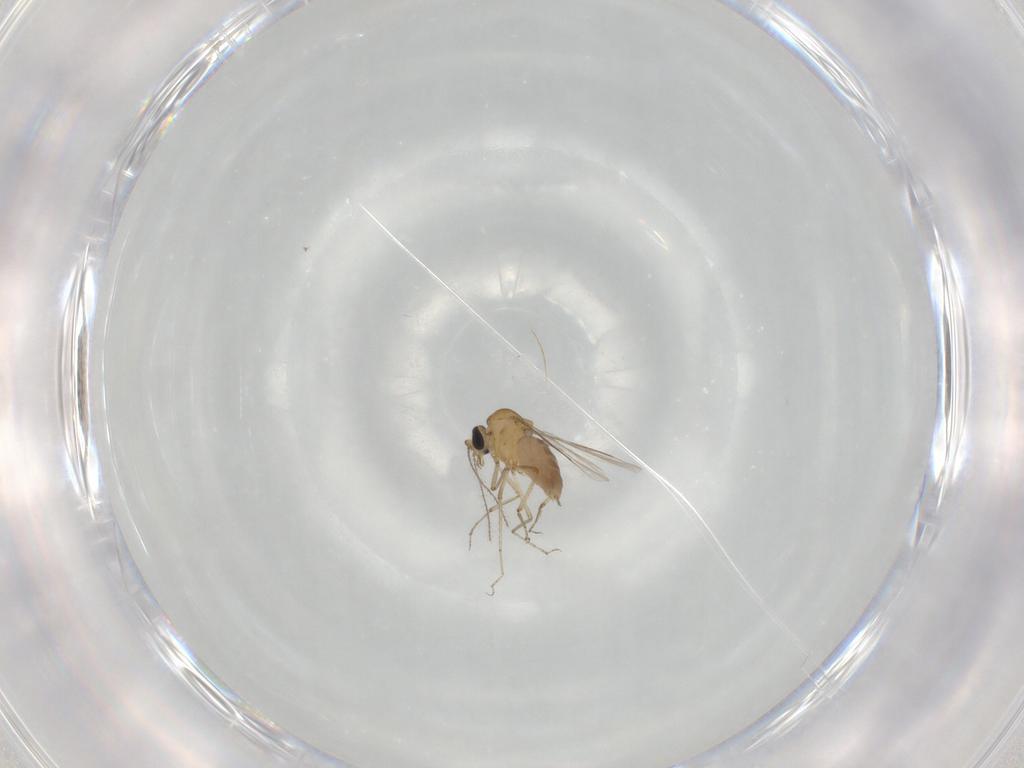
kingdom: Animalia
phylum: Arthropoda
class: Insecta
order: Diptera
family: Ceratopogonidae
